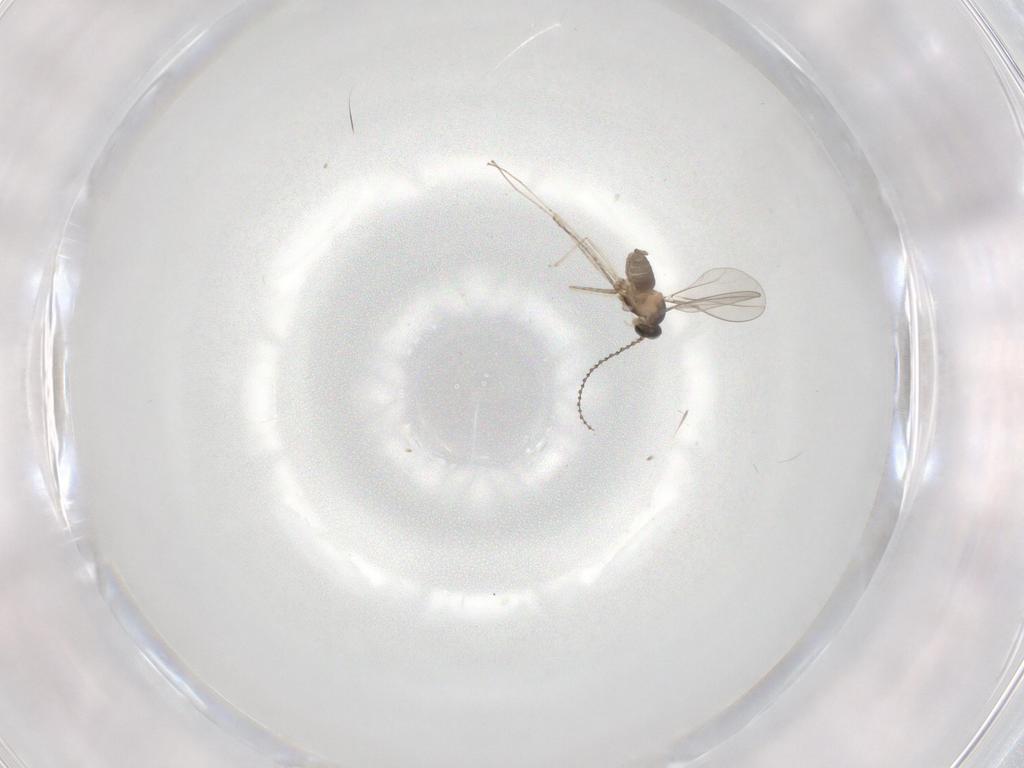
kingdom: Animalia
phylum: Arthropoda
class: Insecta
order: Diptera
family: Cecidomyiidae
